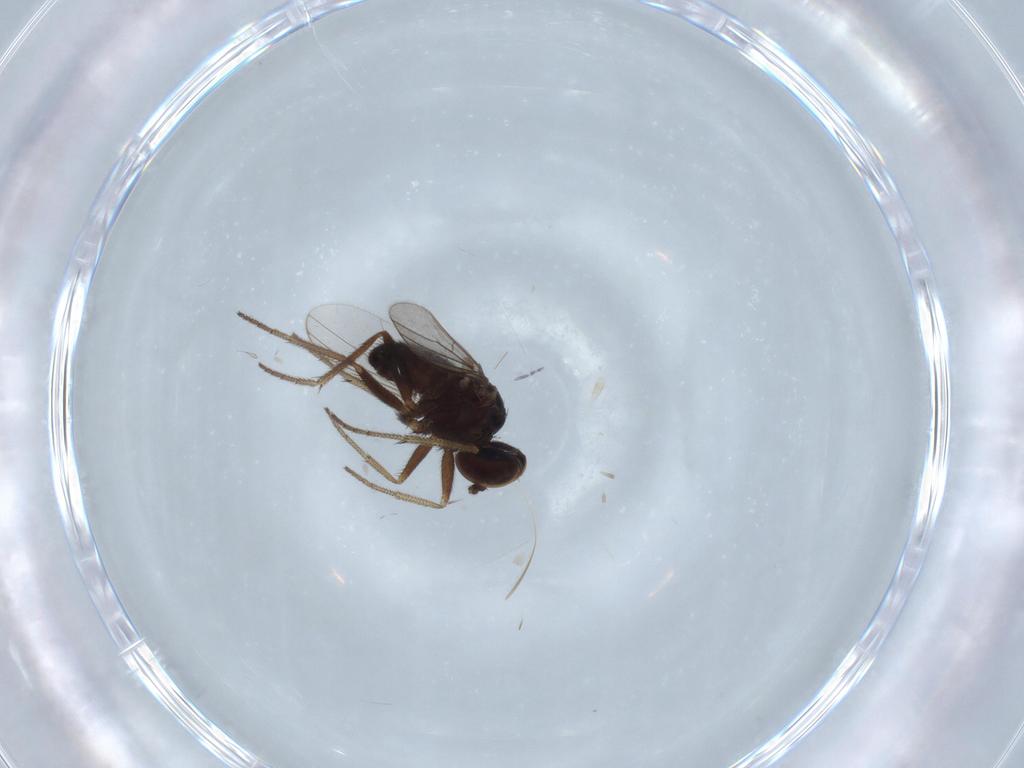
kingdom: Animalia
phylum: Arthropoda
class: Insecta
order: Diptera
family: Dolichopodidae
